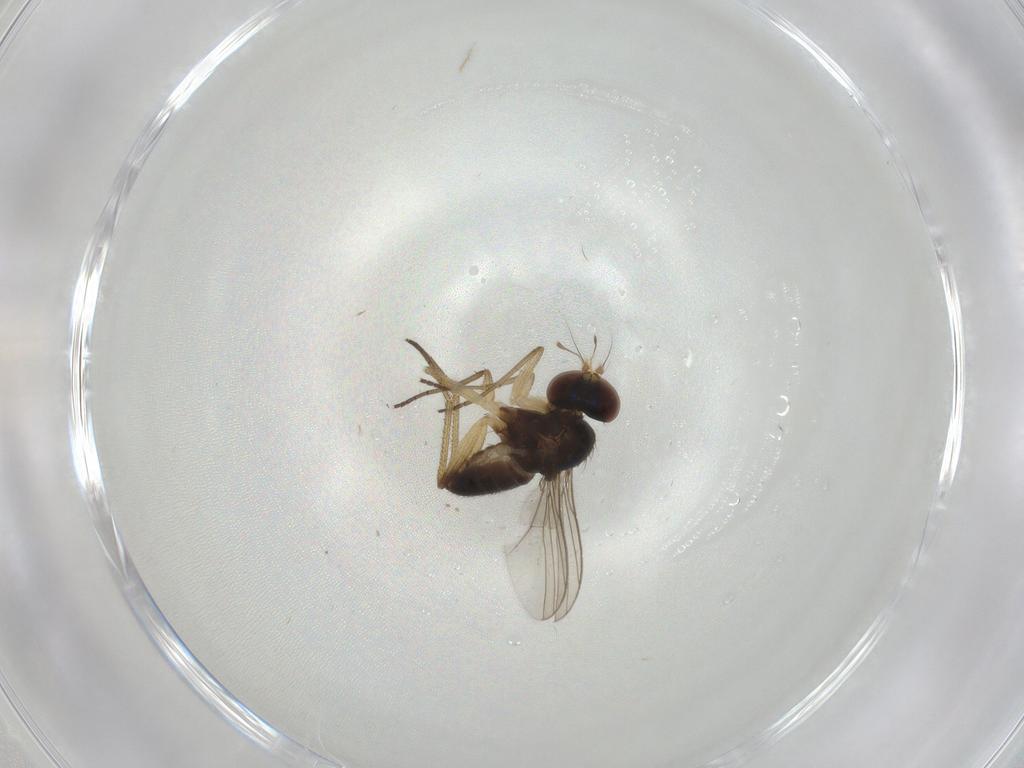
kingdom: Animalia
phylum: Arthropoda
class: Insecta
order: Diptera
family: Dolichopodidae
